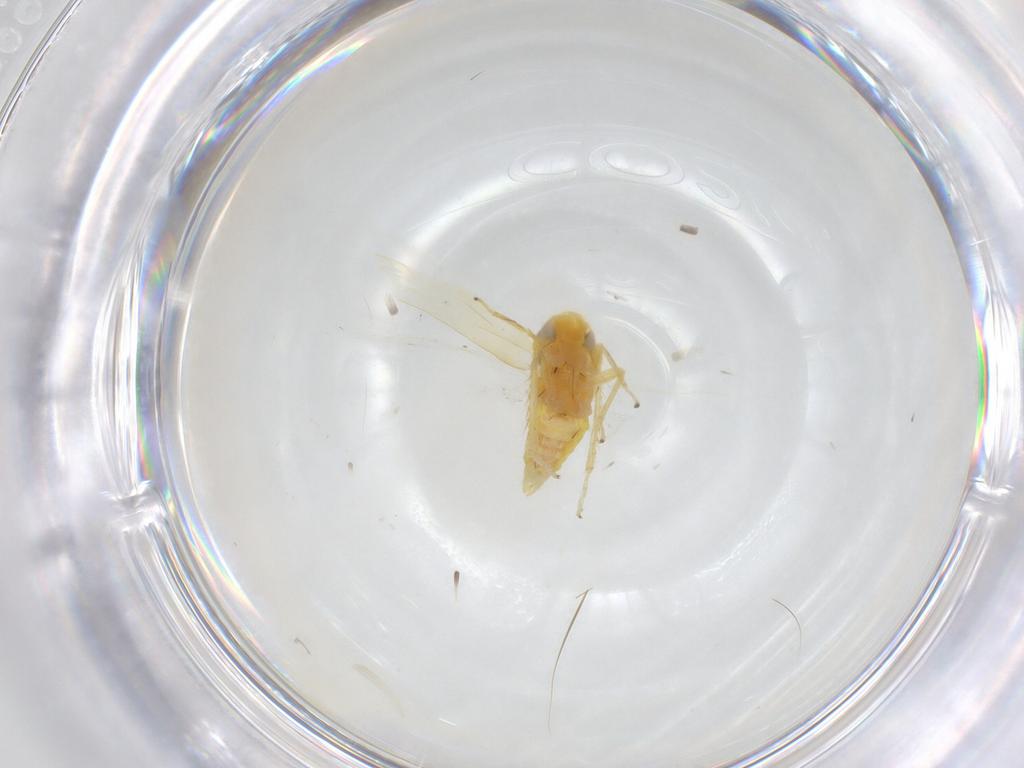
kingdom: Animalia
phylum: Arthropoda
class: Insecta
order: Hemiptera
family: Cicadellidae
